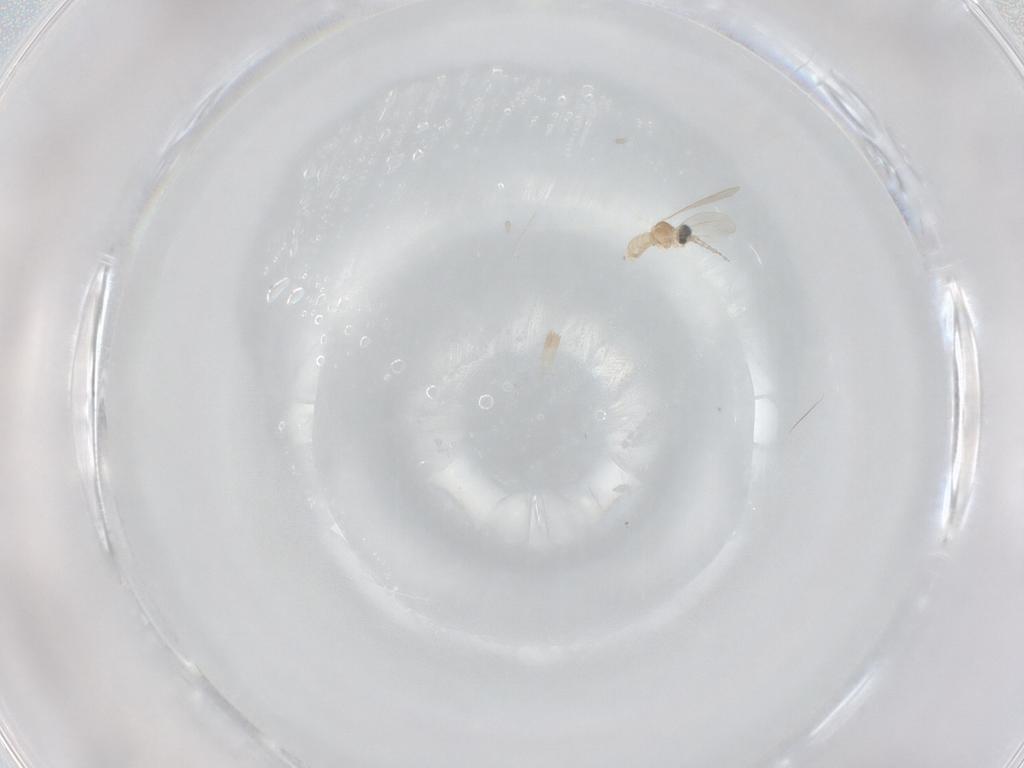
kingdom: Animalia
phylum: Arthropoda
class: Insecta
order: Diptera
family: Cecidomyiidae
